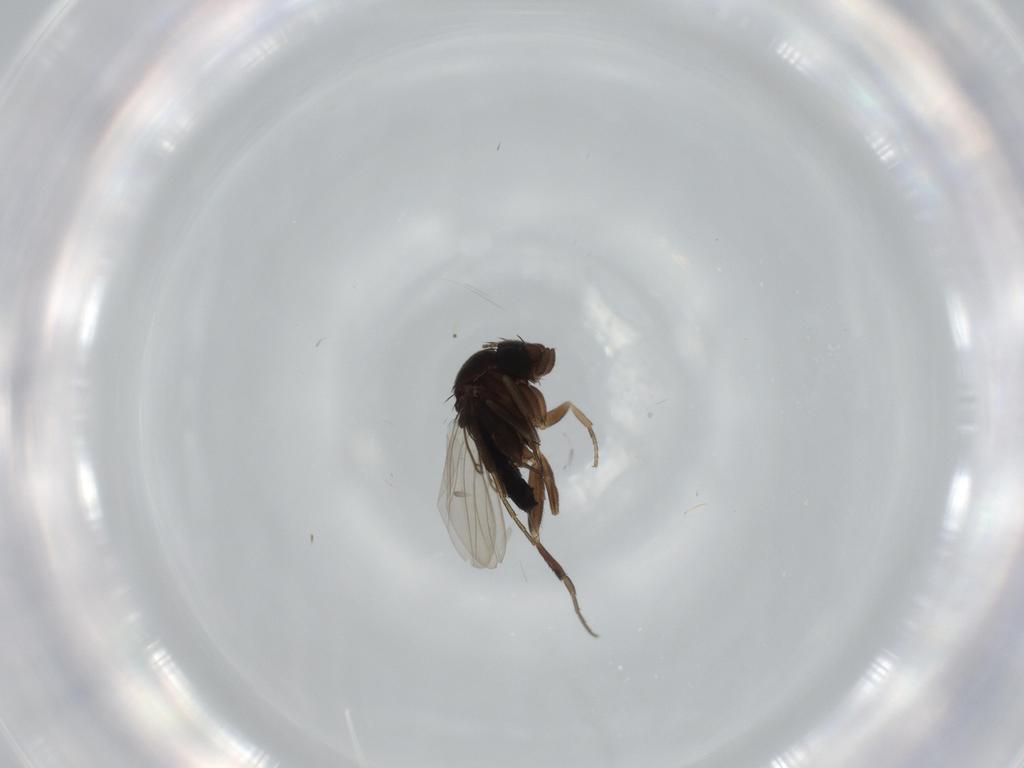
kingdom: Animalia
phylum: Arthropoda
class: Insecta
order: Diptera
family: Phoridae
